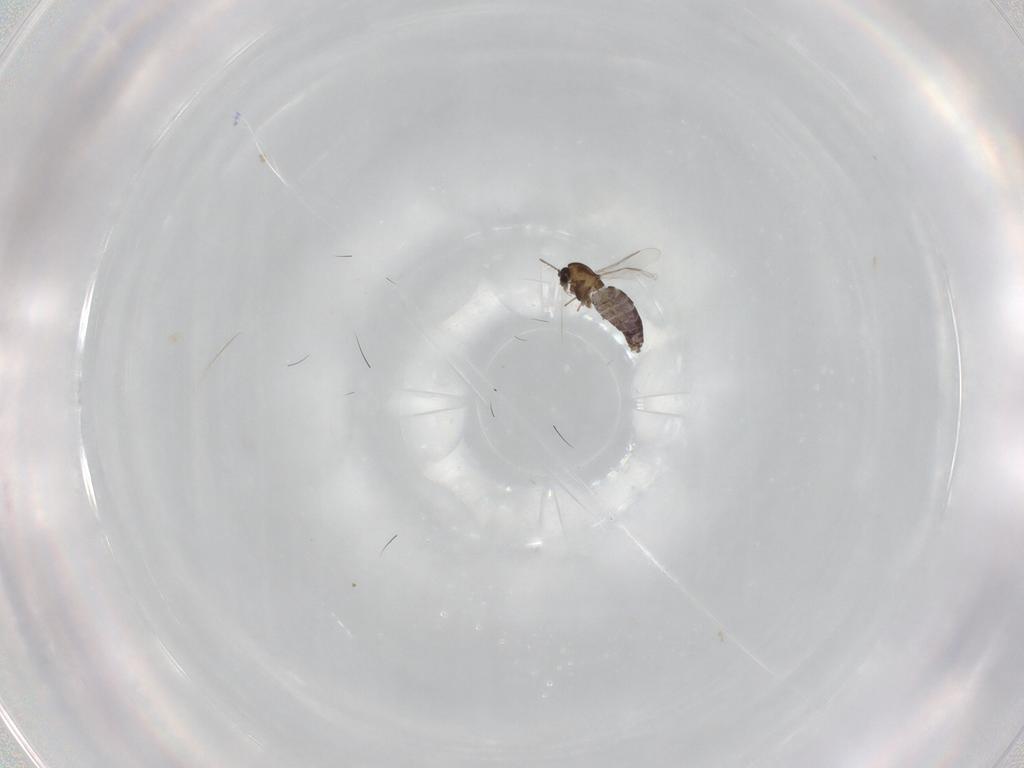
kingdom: Animalia
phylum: Arthropoda
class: Insecta
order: Diptera
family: Chironomidae
